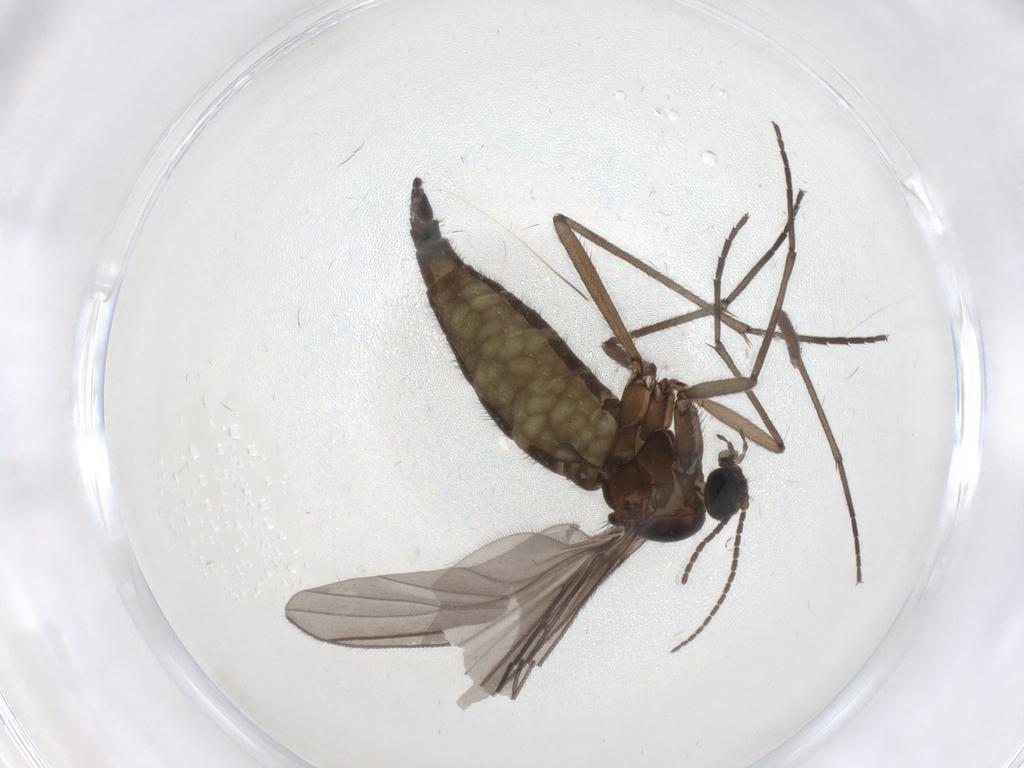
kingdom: Animalia
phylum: Arthropoda
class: Insecta
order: Diptera
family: Sciaridae
